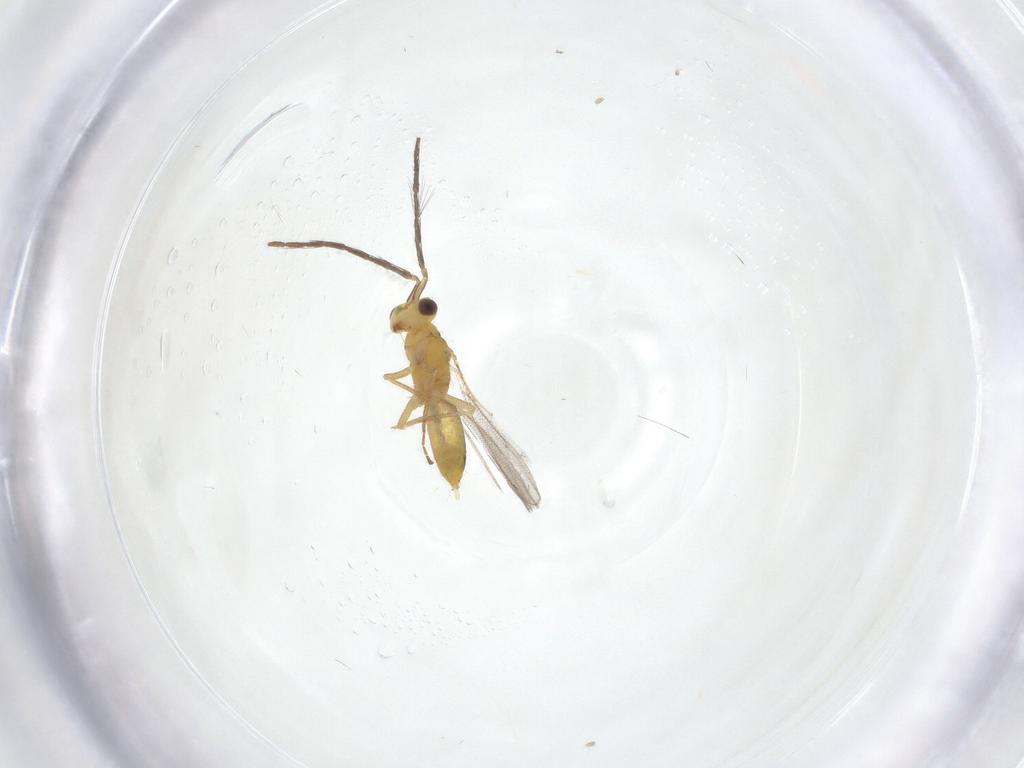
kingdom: Animalia
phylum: Arthropoda
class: Insecta
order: Hymenoptera
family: Eulophidae
